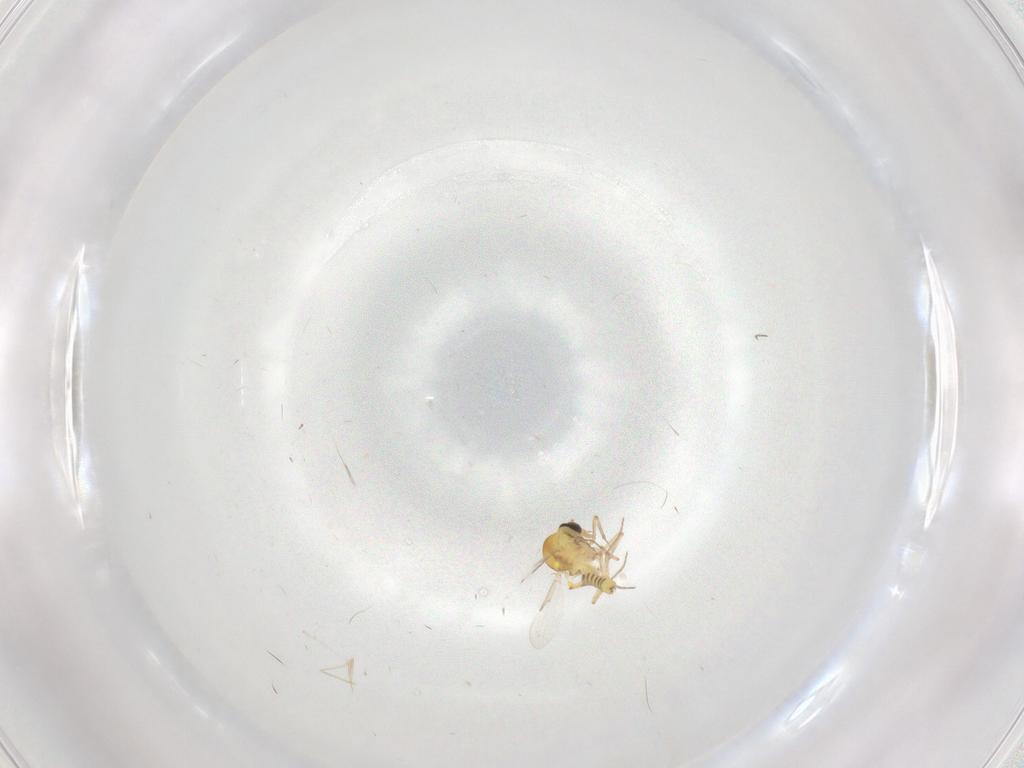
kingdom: Animalia
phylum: Arthropoda
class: Insecta
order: Diptera
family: Ceratopogonidae
